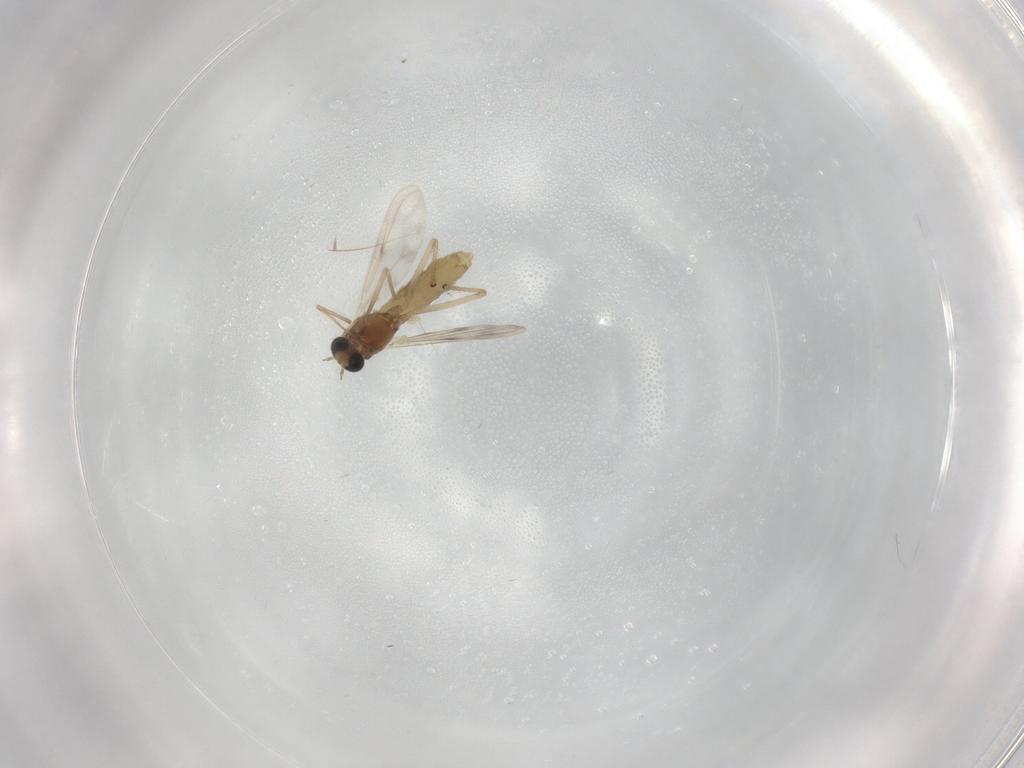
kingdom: Animalia
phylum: Arthropoda
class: Insecta
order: Diptera
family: Chironomidae
